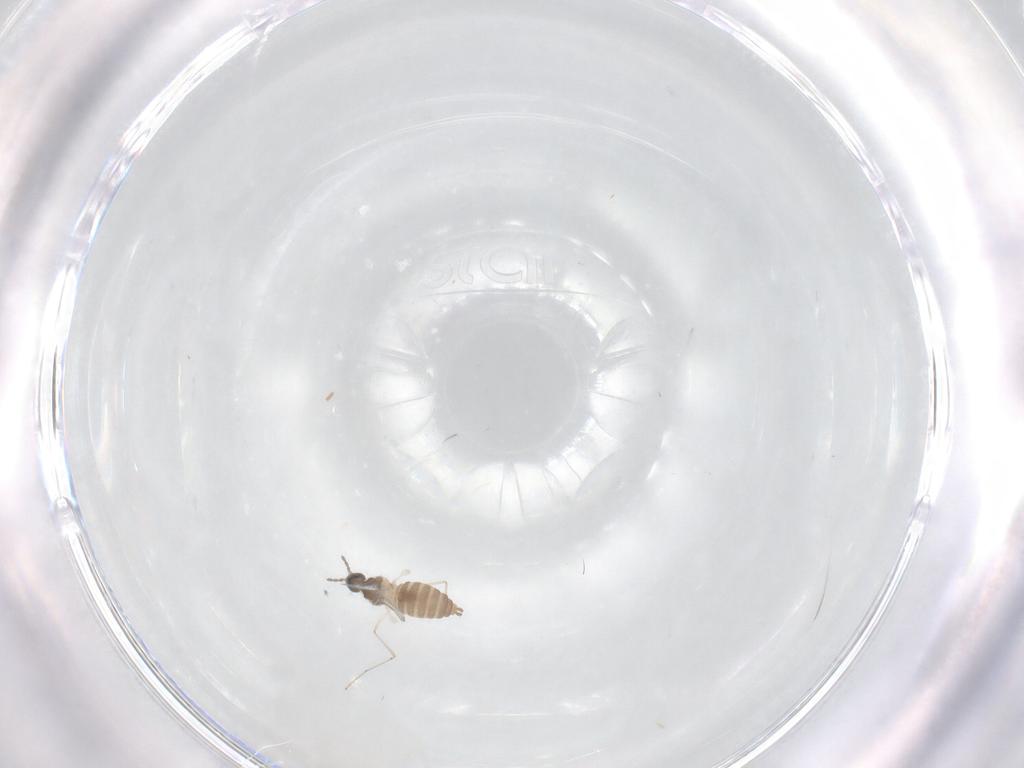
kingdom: Animalia
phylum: Arthropoda
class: Insecta
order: Diptera
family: Cecidomyiidae
